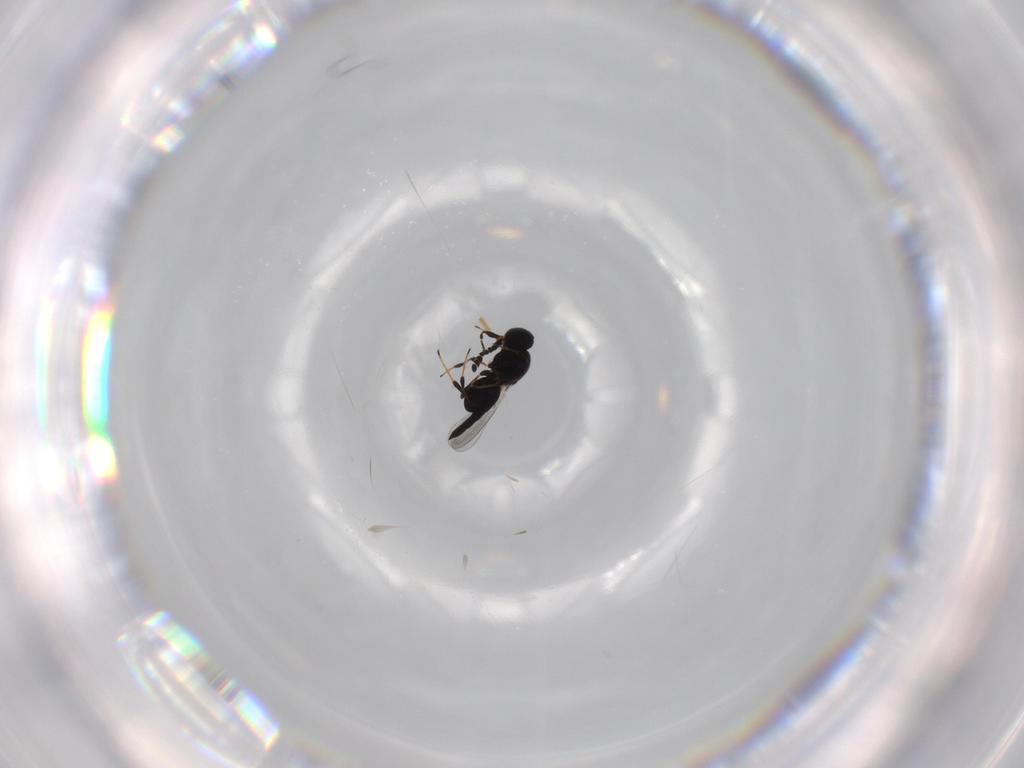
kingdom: Animalia
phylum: Arthropoda
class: Insecta
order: Hymenoptera
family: Platygastridae
